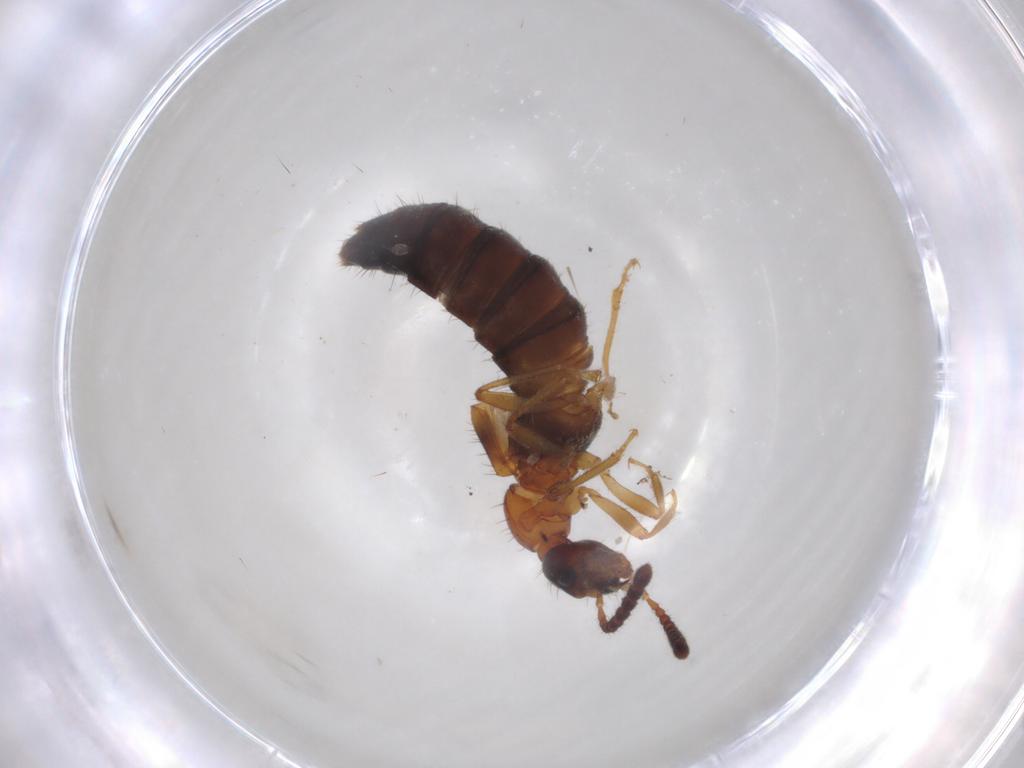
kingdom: Animalia
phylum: Arthropoda
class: Insecta
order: Coleoptera
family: Staphylinidae
